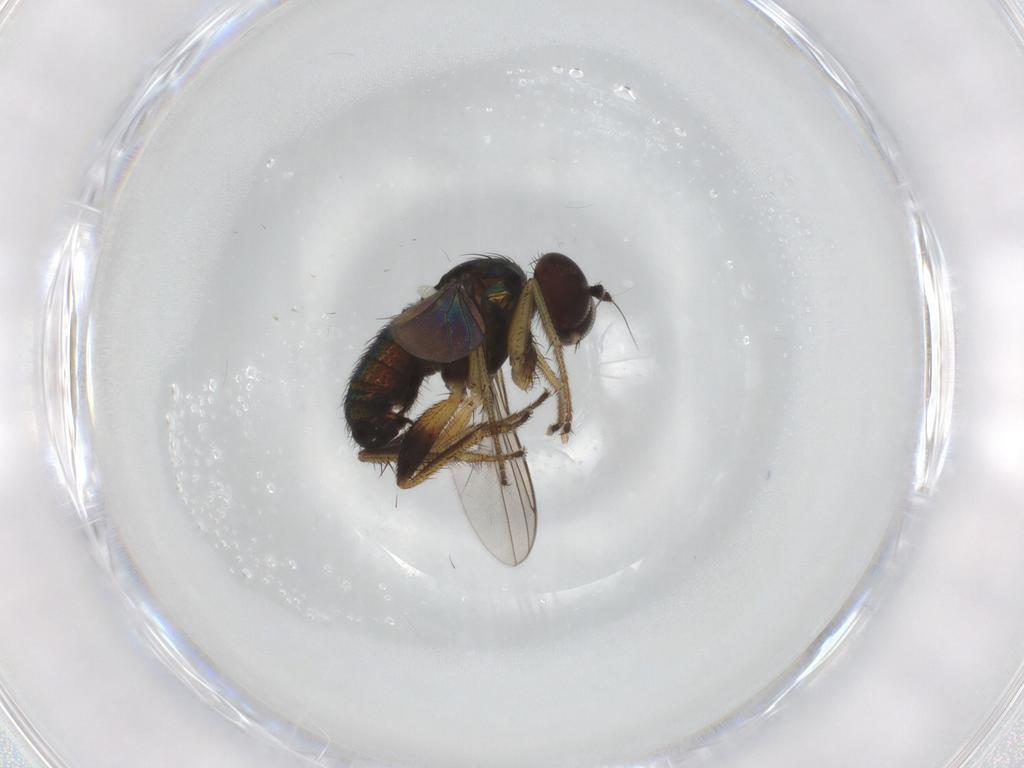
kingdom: Animalia
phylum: Arthropoda
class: Insecta
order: Diptera
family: Dolichopodidae
